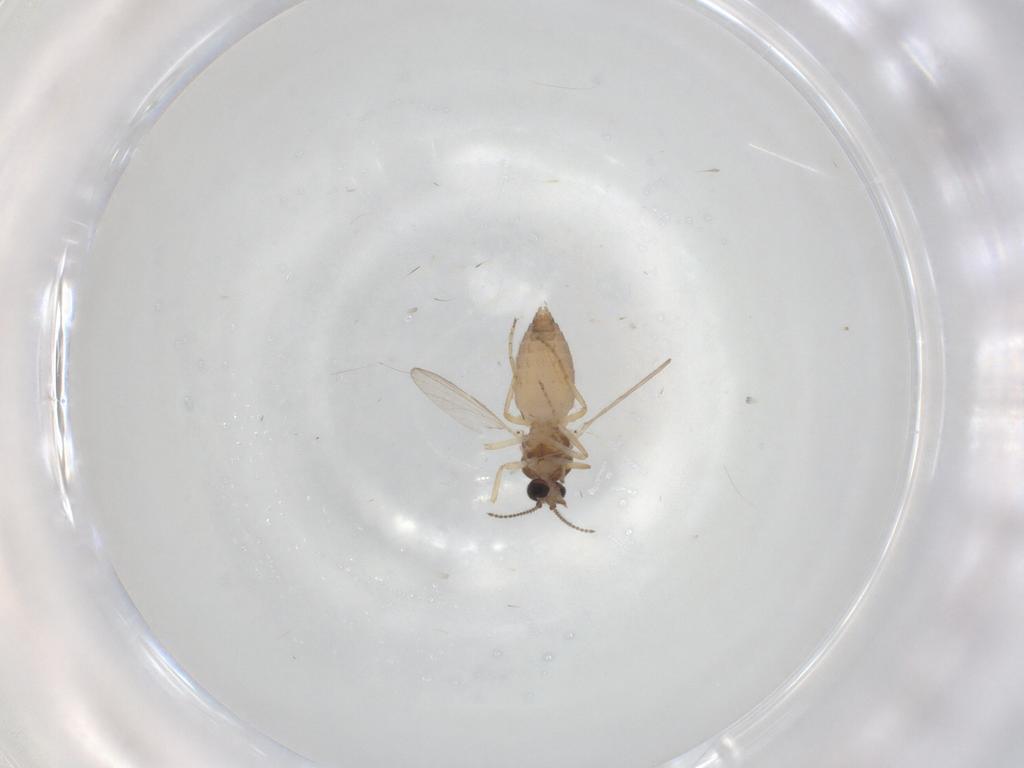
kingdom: Animalia
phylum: Arthropoda
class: Insecta
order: Diptera
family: Ceratopogonidae
